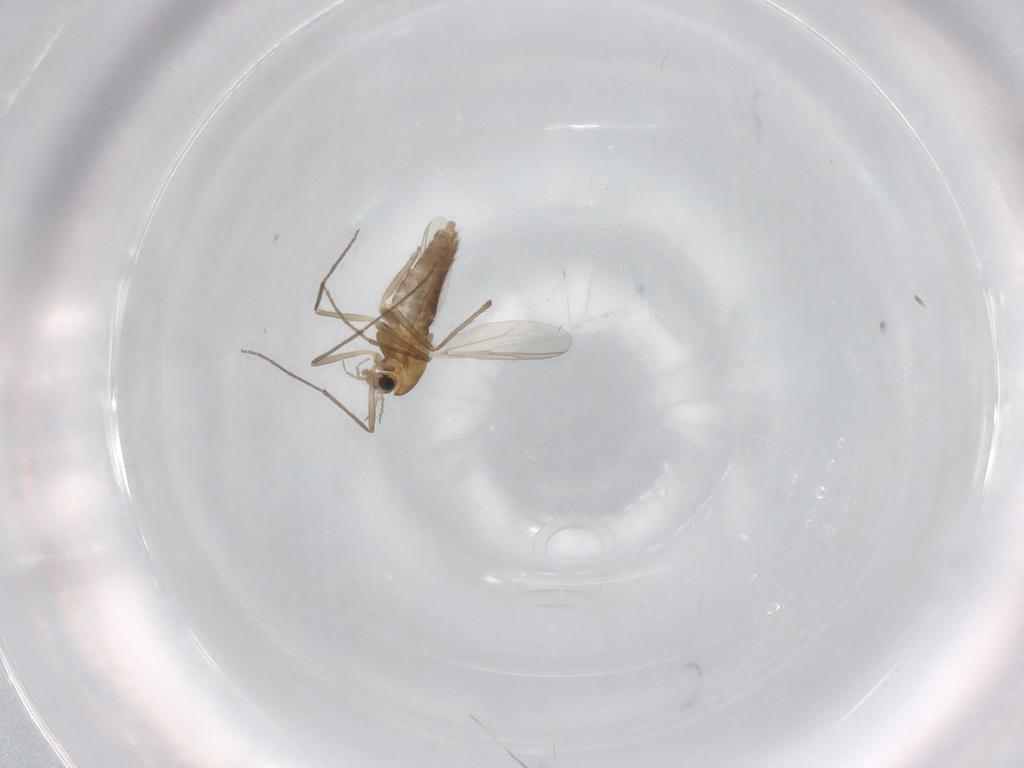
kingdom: Animalia
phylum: Arthropoda
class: Insecta
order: Diptera
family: Chironomidae
